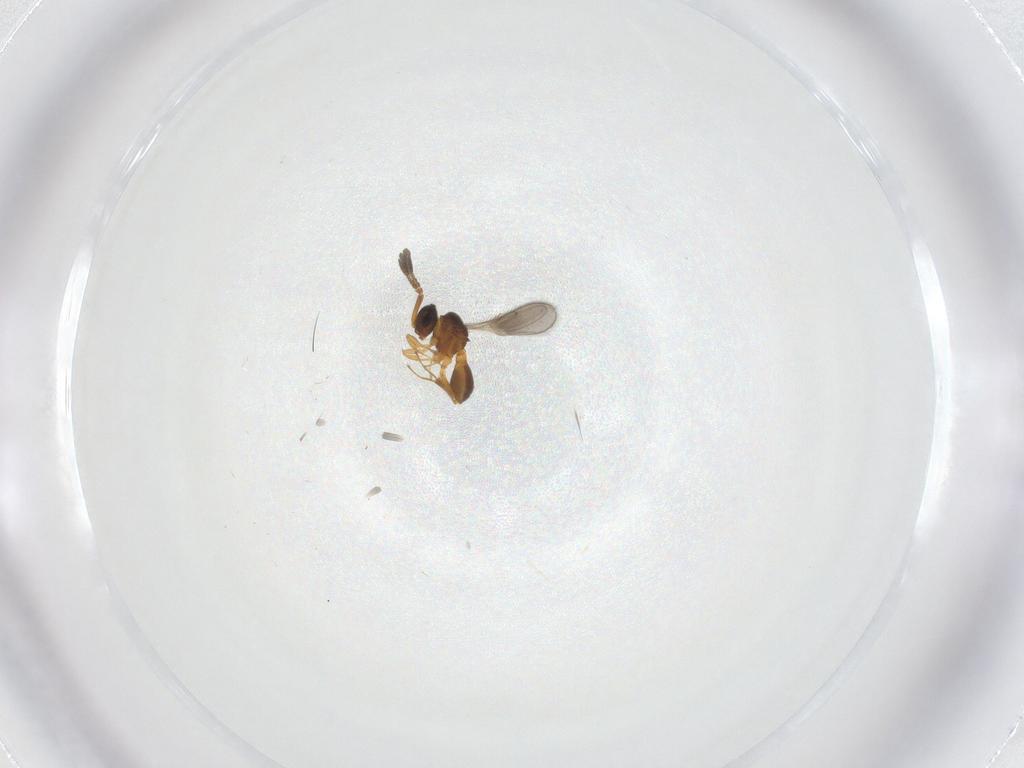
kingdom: Animalia
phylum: Arthropoda
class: Insecta
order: Hymenoptera
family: Scelionidae
